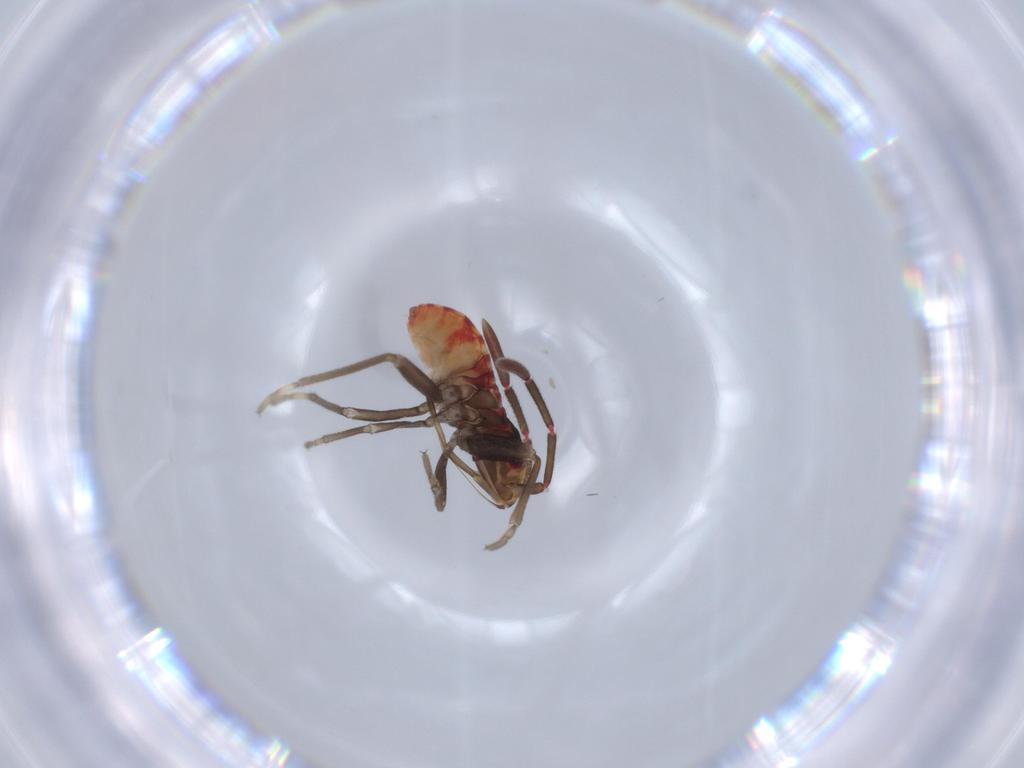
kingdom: Animalia
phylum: Arthropoda
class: Insecta
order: Hemiptera
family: Rhyparochromidae
